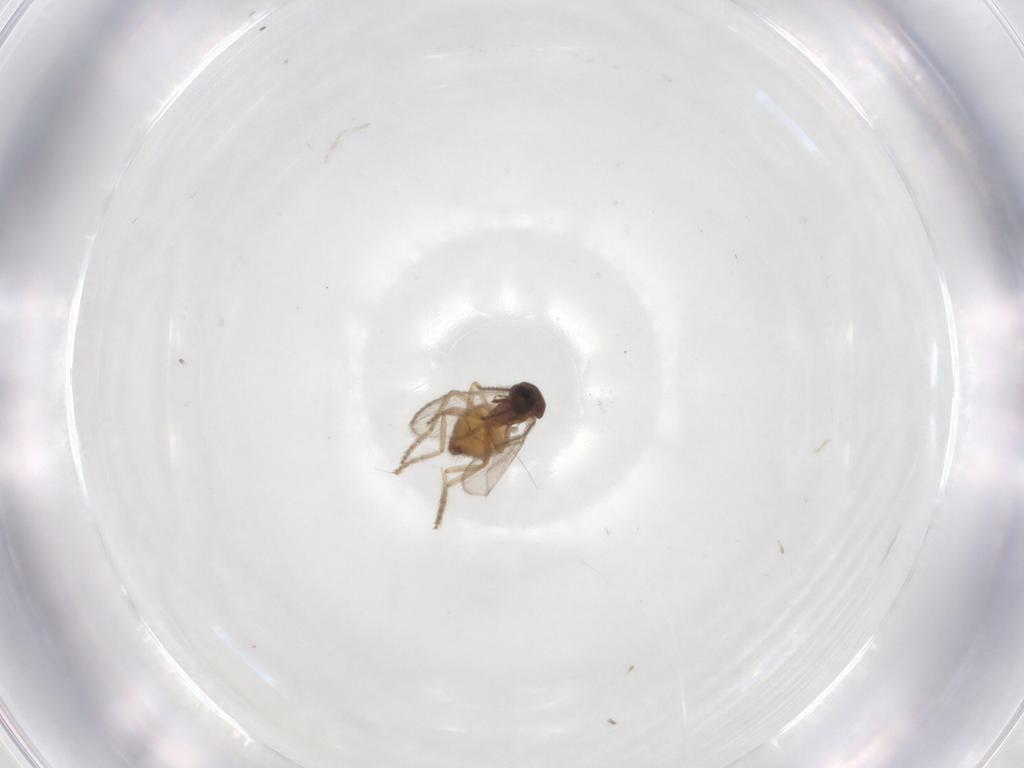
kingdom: Animalia
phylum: Arthropoda
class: Insecta
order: Diptera
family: Ceratopogonidae
